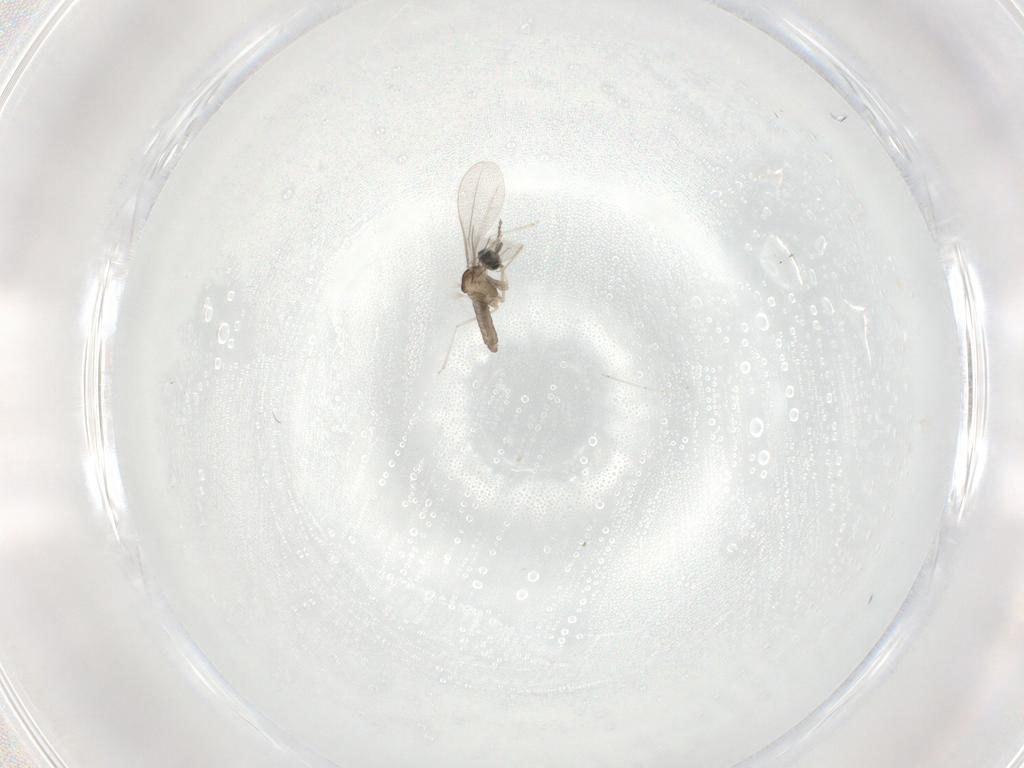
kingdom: Animalia
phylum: Arthropoda
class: Insecta
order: Diptera
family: Cecidomyiidae
